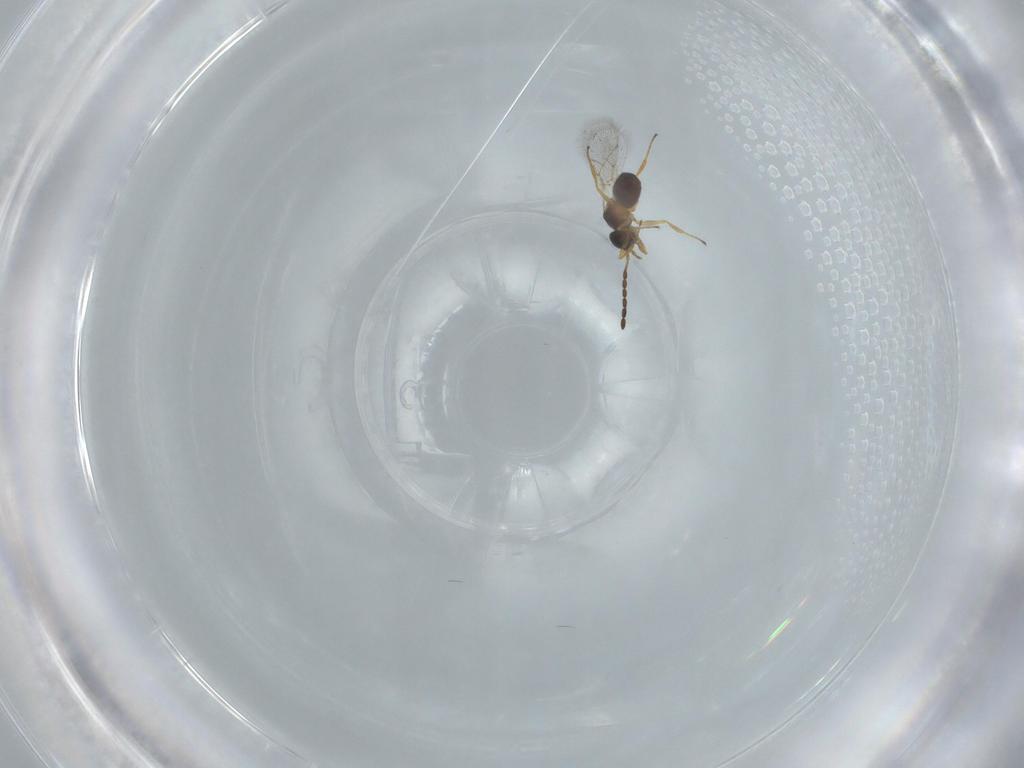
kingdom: Animalia
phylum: Arthropoda
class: Insecta
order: Hymenoptera
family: Figitidae
